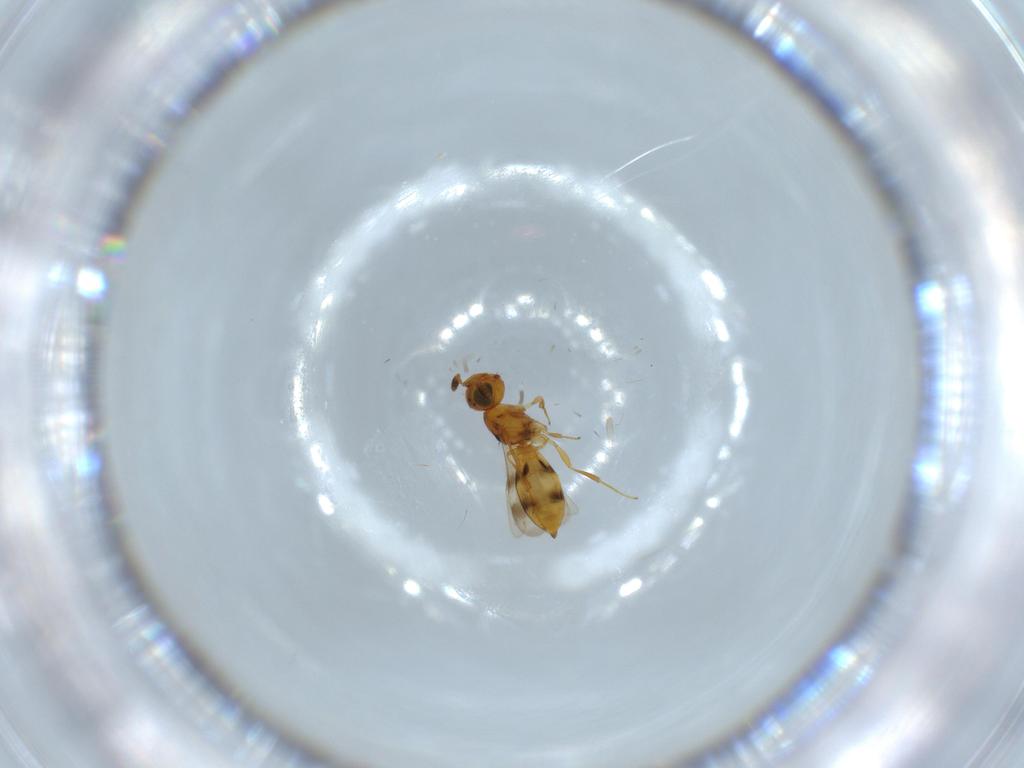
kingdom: Animalia
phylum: Arthropoda
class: Insecta
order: Hymenoptera
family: Scelionidae
